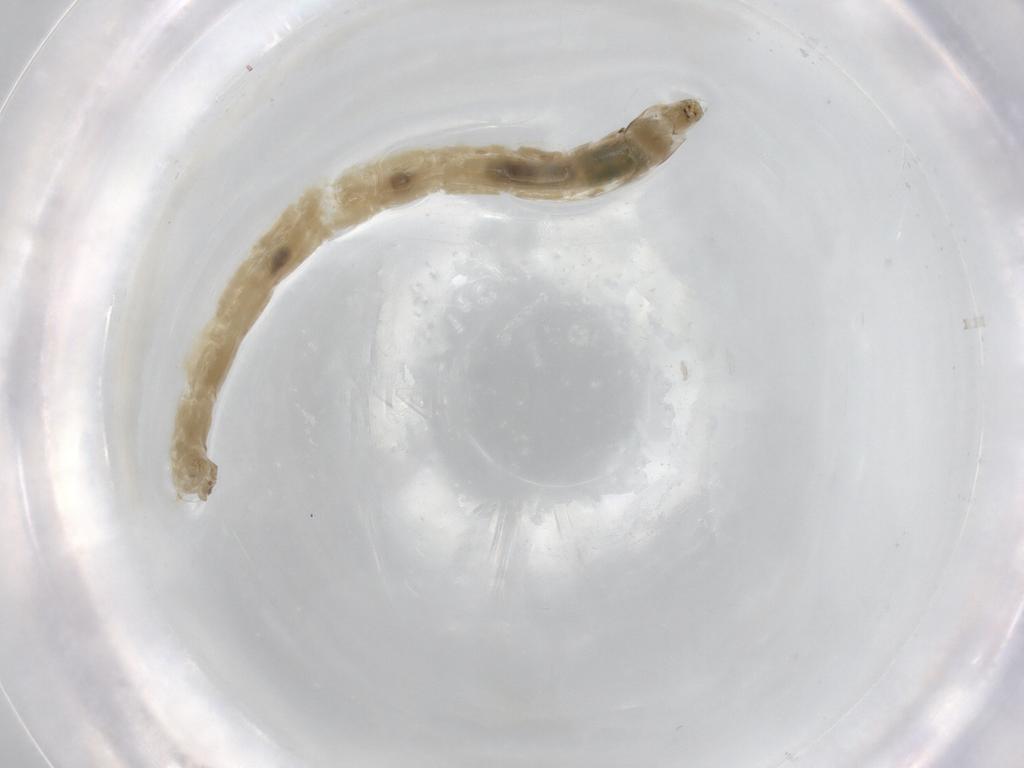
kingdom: Animalia
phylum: Arthropoda
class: Insecta
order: Diptera
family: Chironomidae
